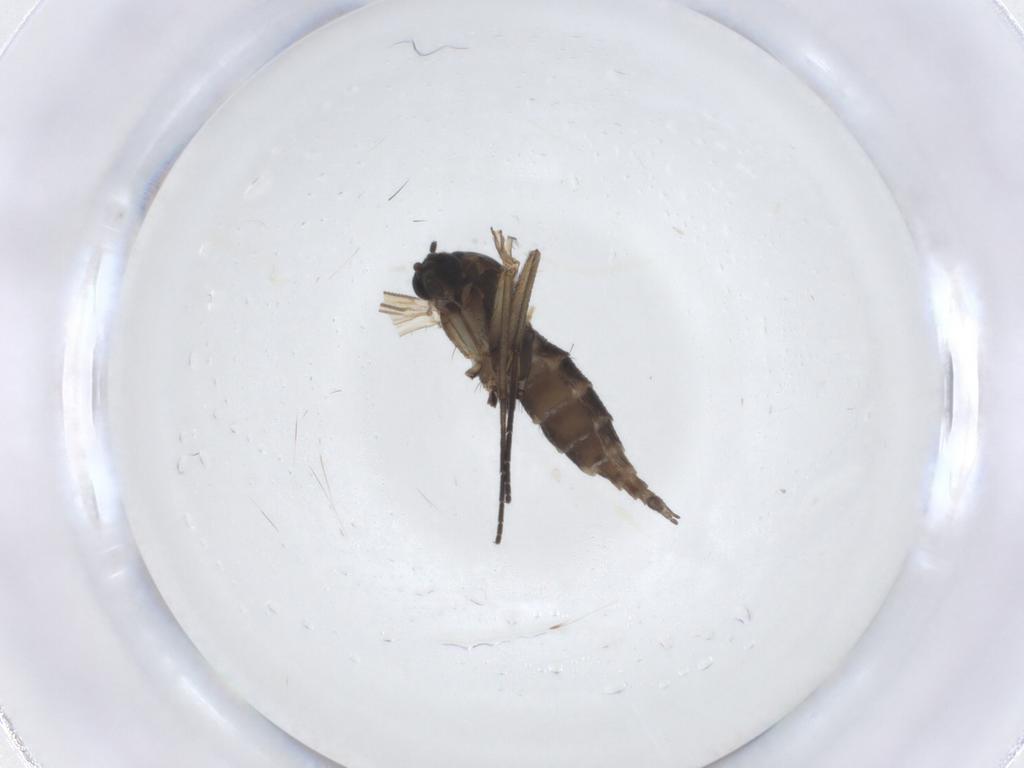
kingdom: Animalia
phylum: Arthropoda
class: Insecta
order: Diptera
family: Sciaridae
